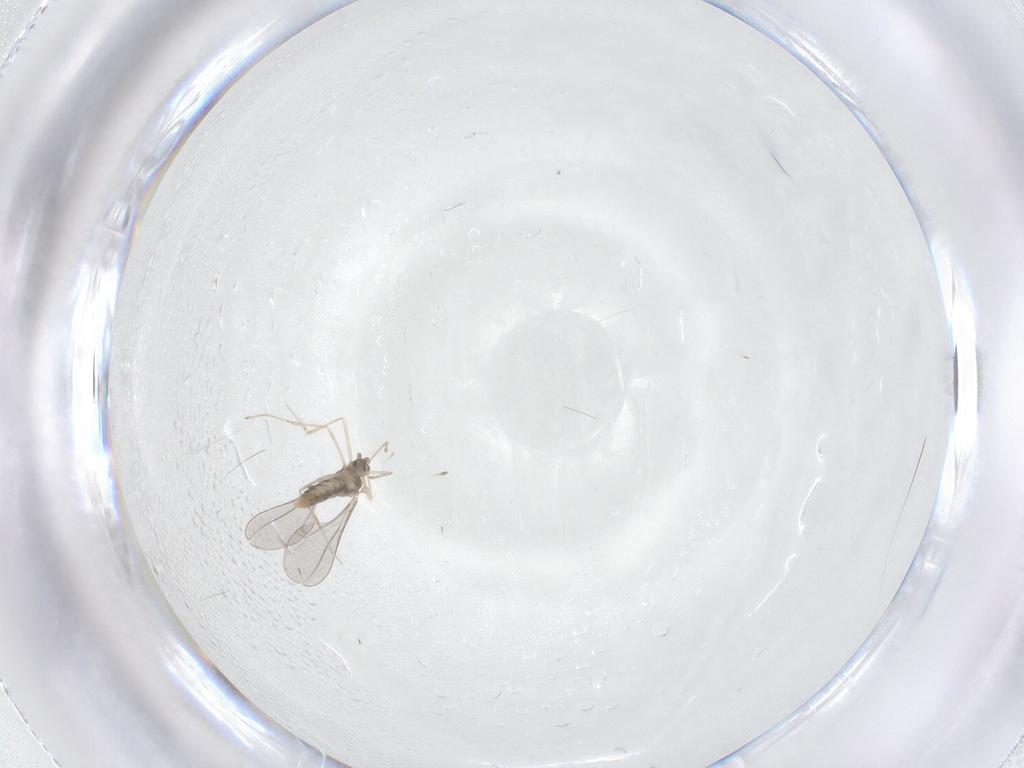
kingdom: Animalia
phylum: Arthropoda
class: Insecta
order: Diptera
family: Cecidomyiidae
